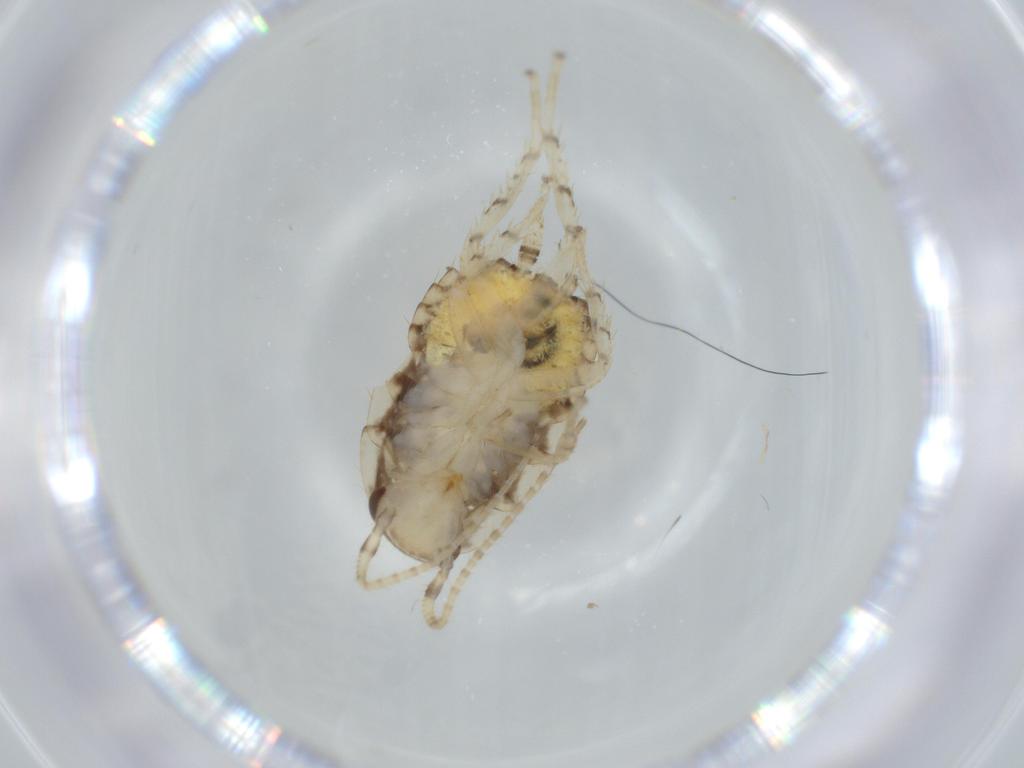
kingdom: Animalia
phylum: Arthropoda
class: Insecta
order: Blattodea
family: Ectobiidae
